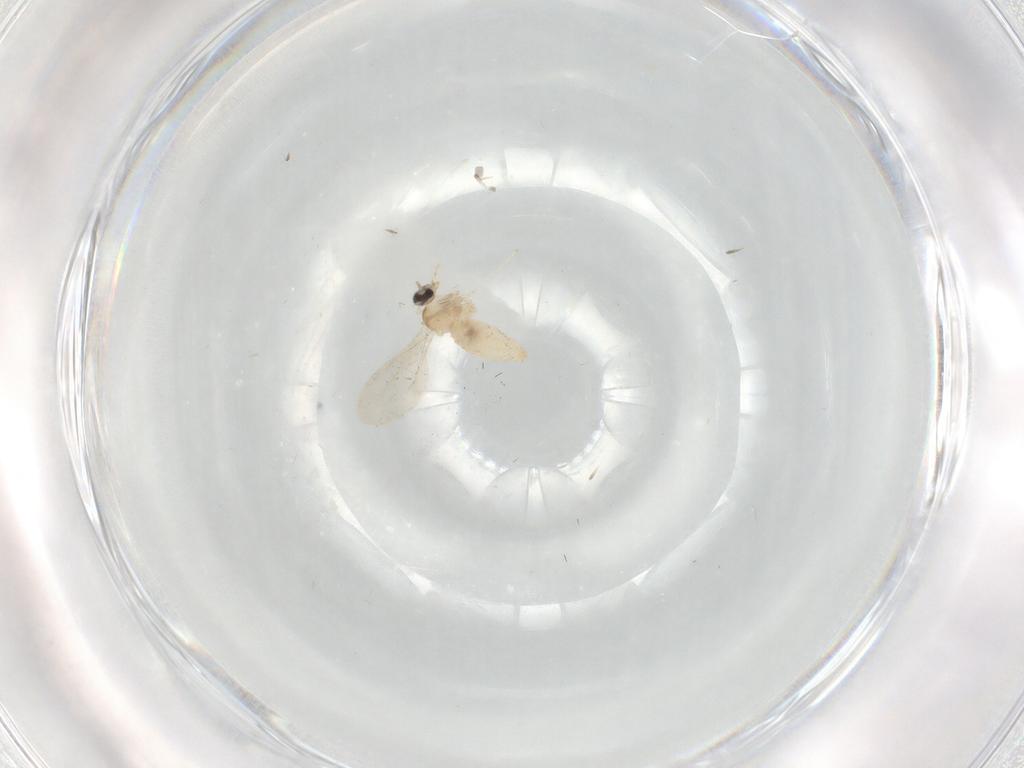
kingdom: Animalia
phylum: Arthropoda
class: Insecta
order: Diptera
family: Cecidomyiidae
